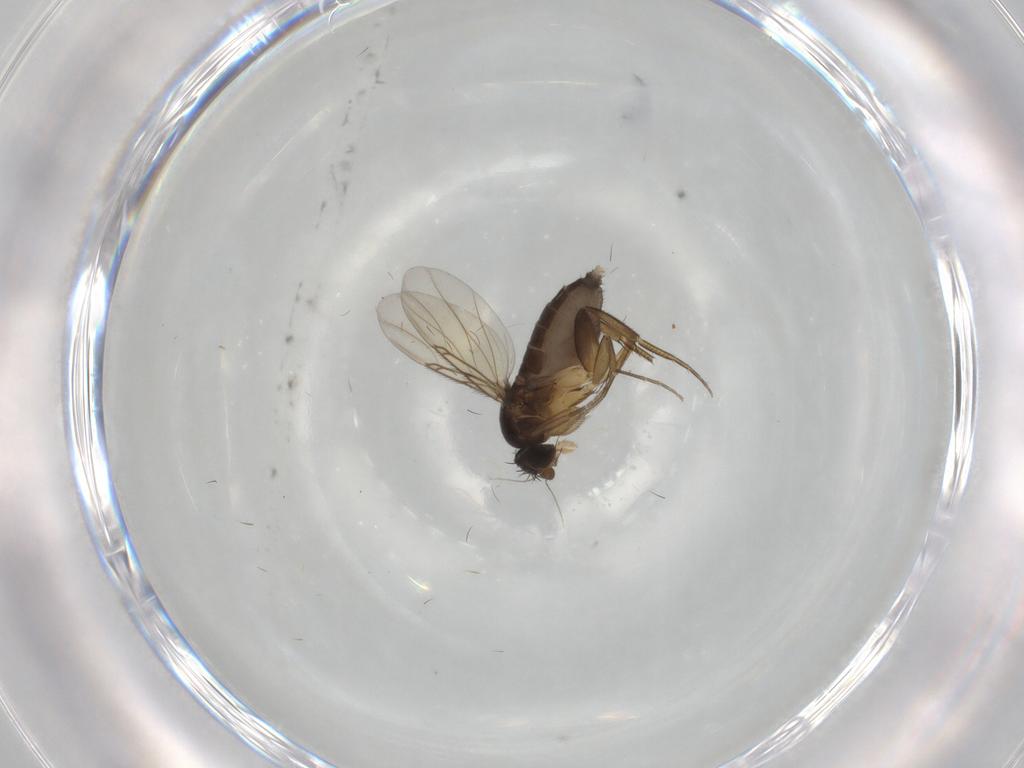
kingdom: Animalia
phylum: Arthropoda
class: Insecta
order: Diptera
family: Phoridae
